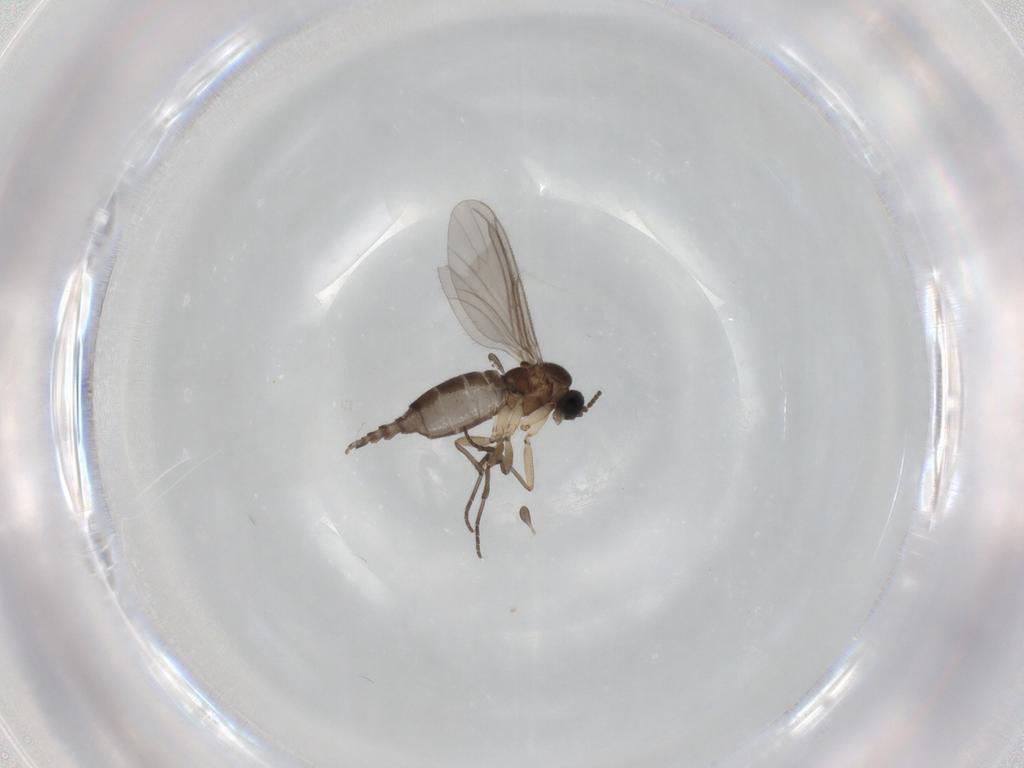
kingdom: Animalia
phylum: Arthropoda
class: Insecta
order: Diptera
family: Sciaridae
